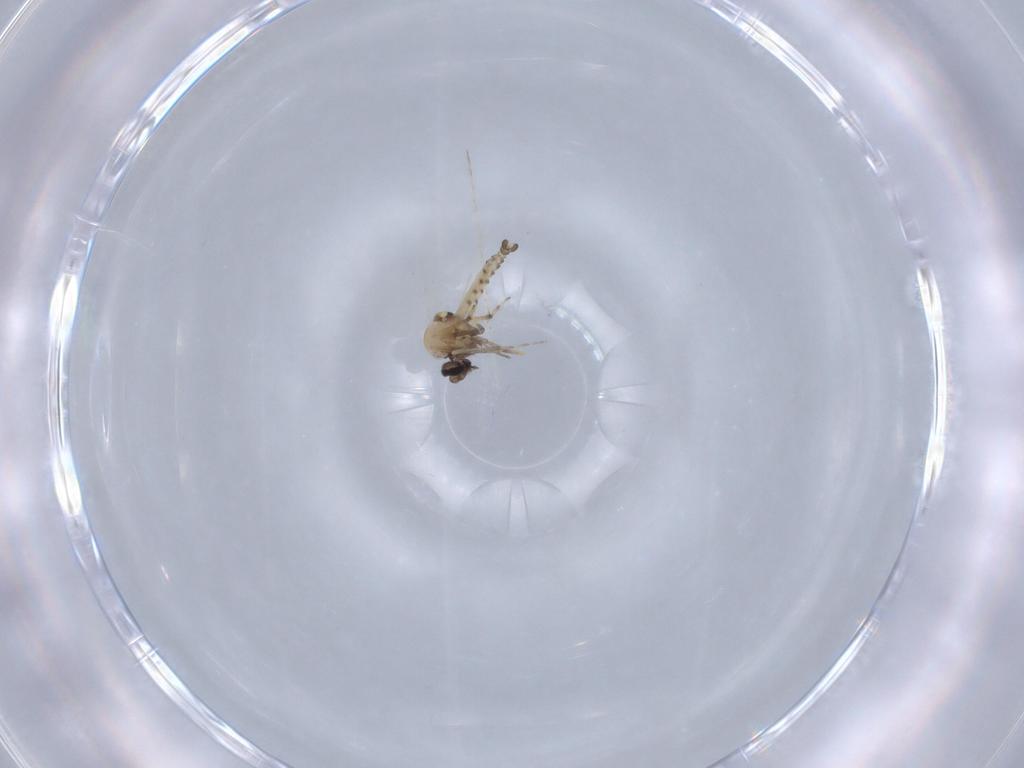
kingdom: Animalia
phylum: Arthropoda
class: Insecta
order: Diptera
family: Ceratopogonidae
